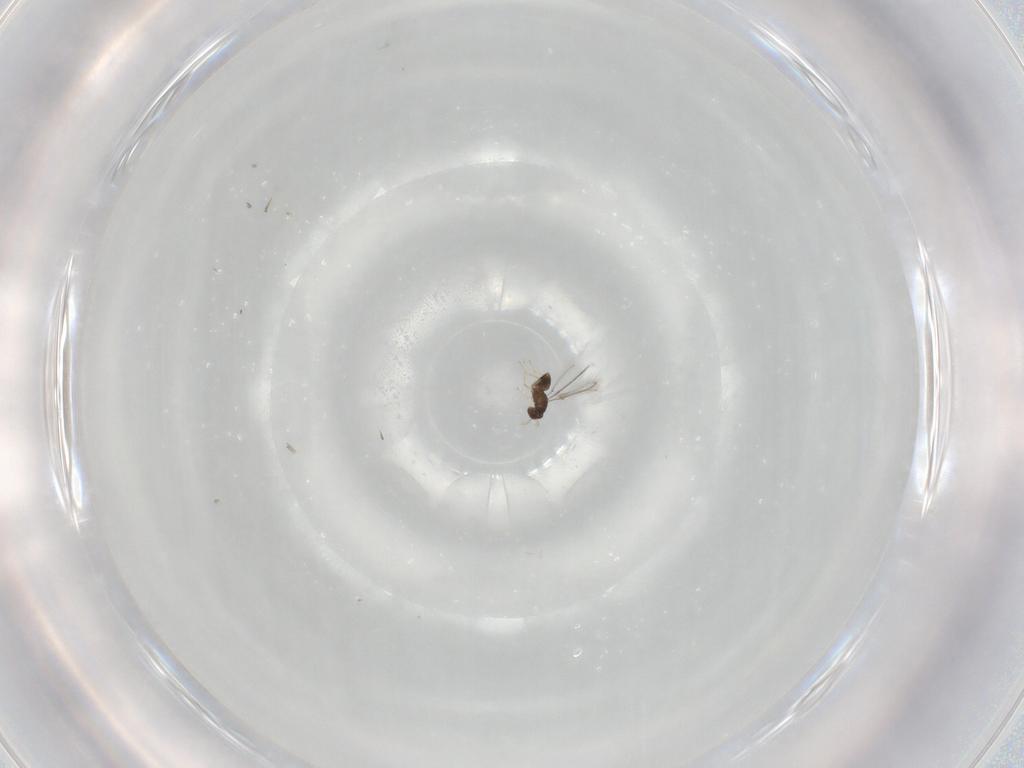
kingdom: Animalia
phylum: Arthropoda
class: Insecta
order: Hymenoptera
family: Mymaridae
